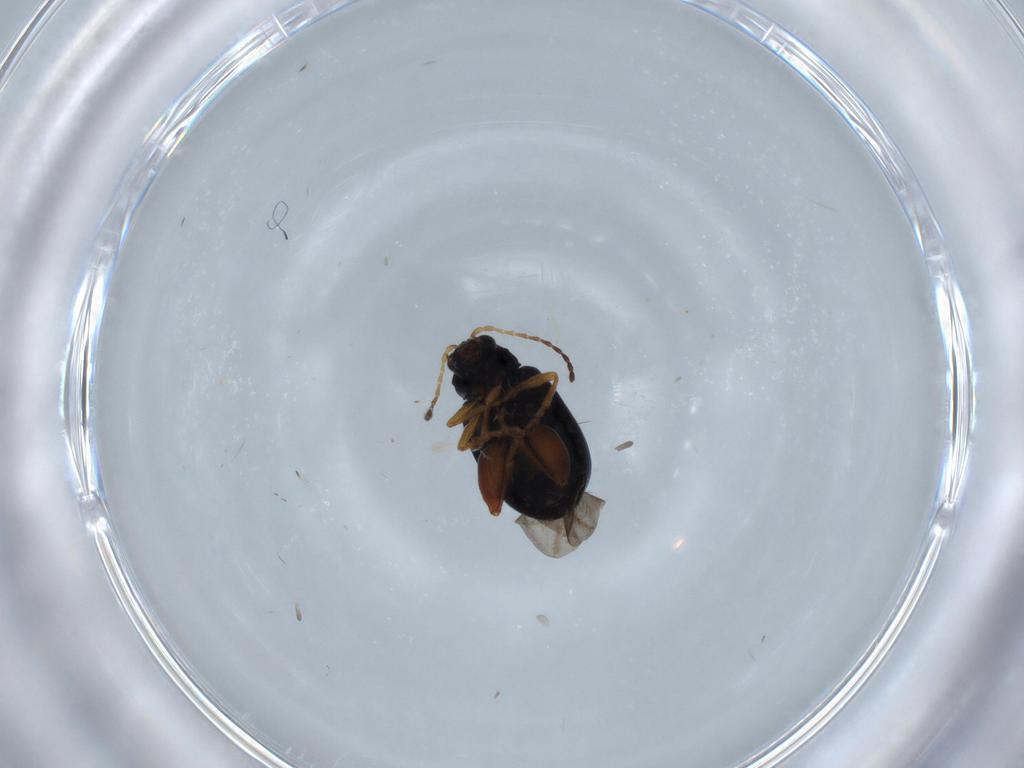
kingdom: Animalia
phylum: Arthropoda
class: Insecta
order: Coleoptera
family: Chrysomelidae
